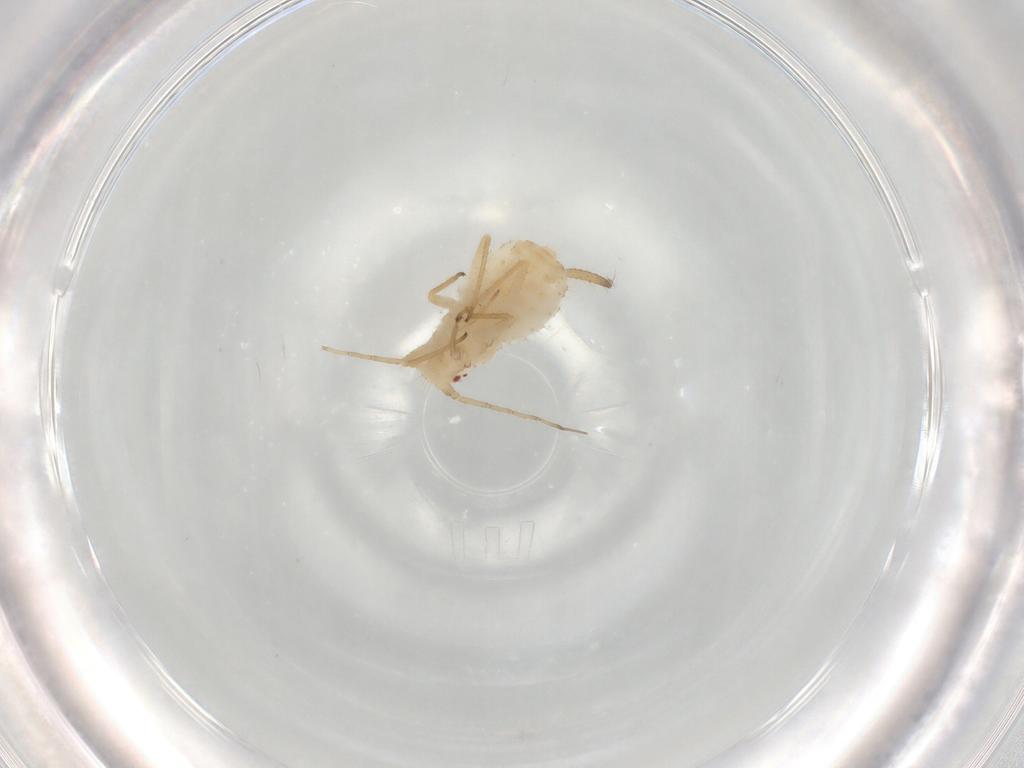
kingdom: Animalia
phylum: Arthropoda
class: Insecta
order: Hemiptera
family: Aphididae
